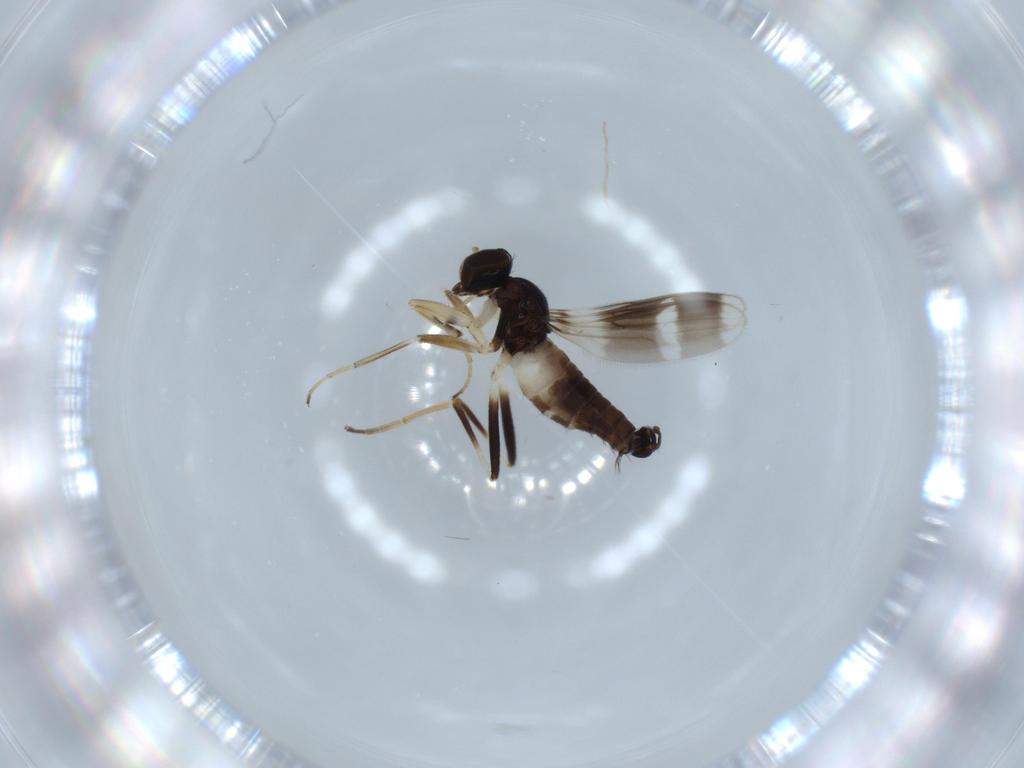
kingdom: Animalia
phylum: Arthropoda
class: Insecta
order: Diptera
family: Hybotidae
